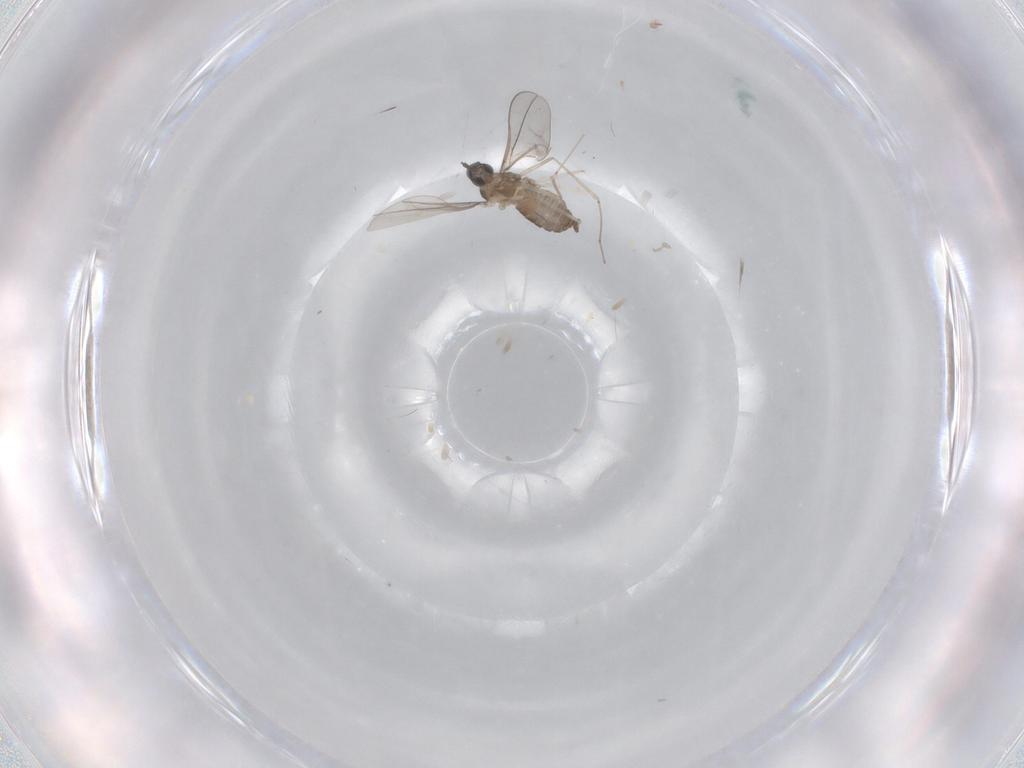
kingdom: Animalia
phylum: Arthropoda
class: Insecta
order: Diptera
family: Cecidomyiidae
